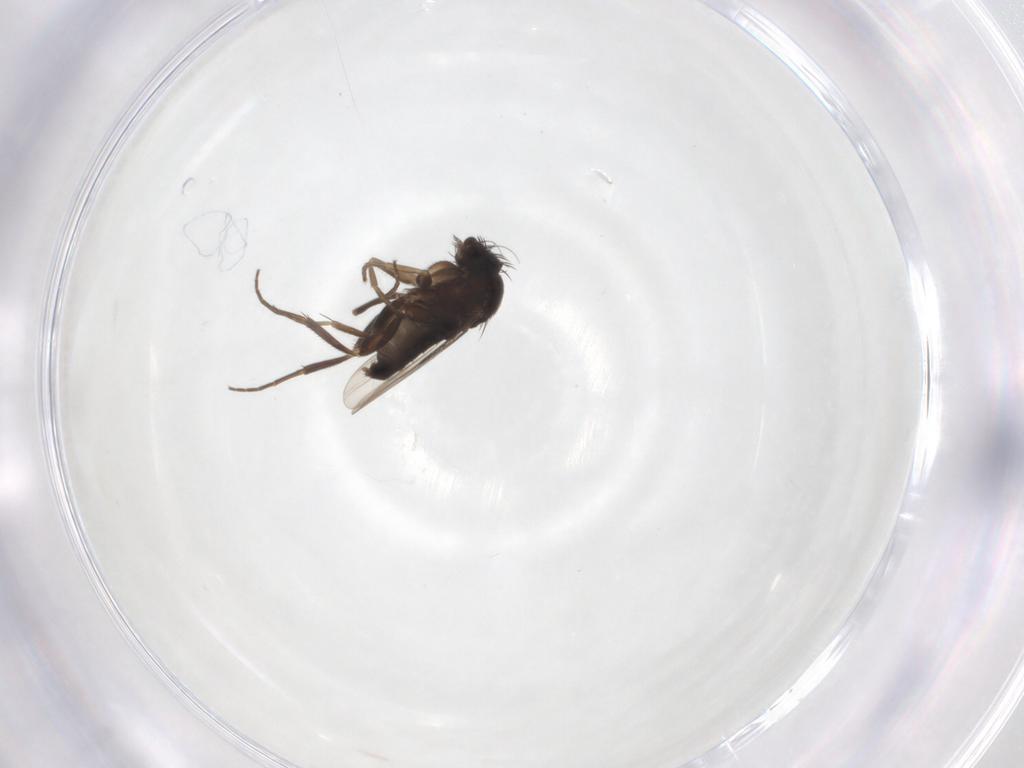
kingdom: Animalia
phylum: Arthropoda
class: Insecta
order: Diptera
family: Phoridae
